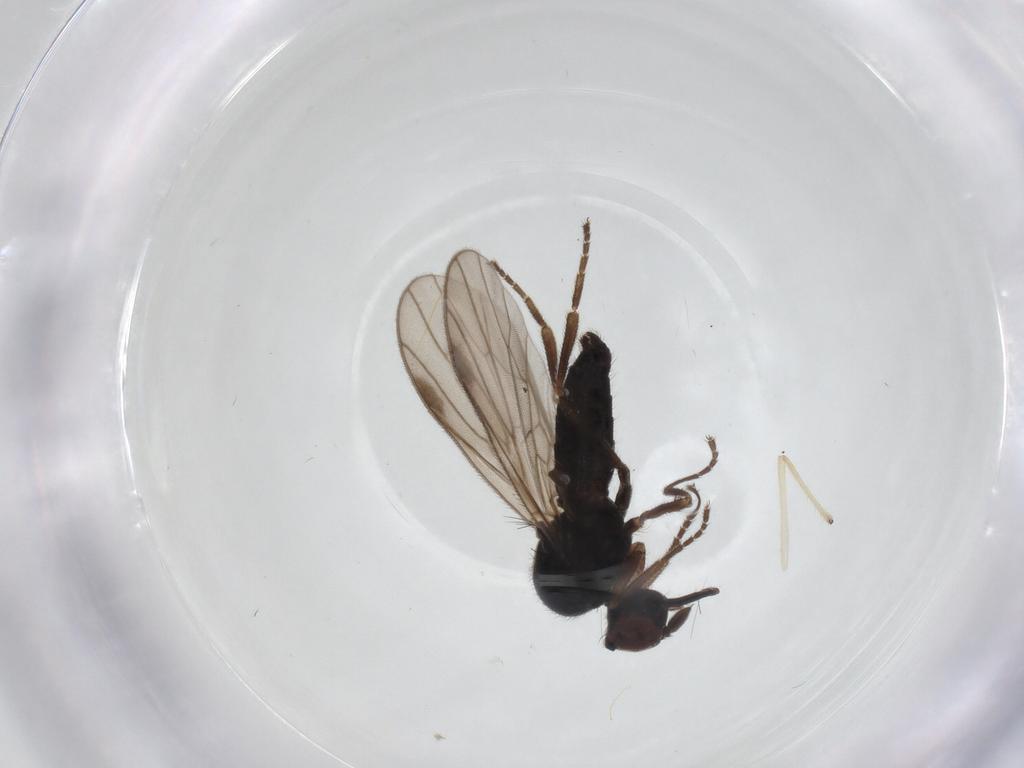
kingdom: Animalia
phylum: Arthropoda
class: Insecta
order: Diptera
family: Hybotidae
